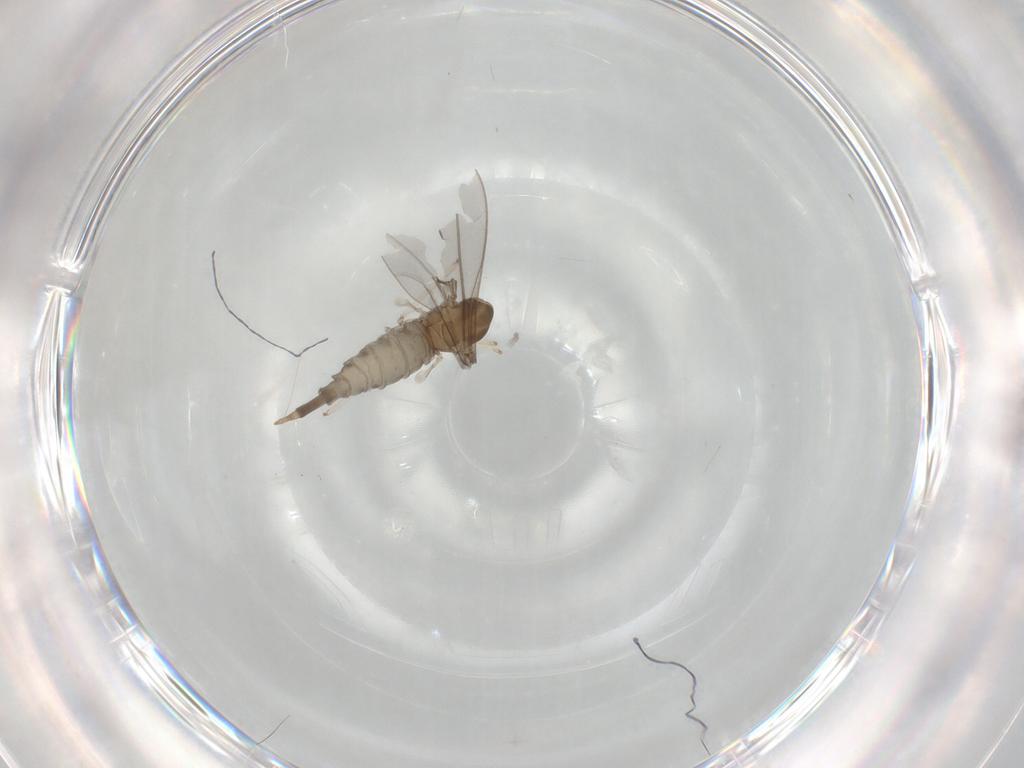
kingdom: Animalia
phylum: Arthropoda
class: Insecta
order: Diptera
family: Cecidomyiidae
